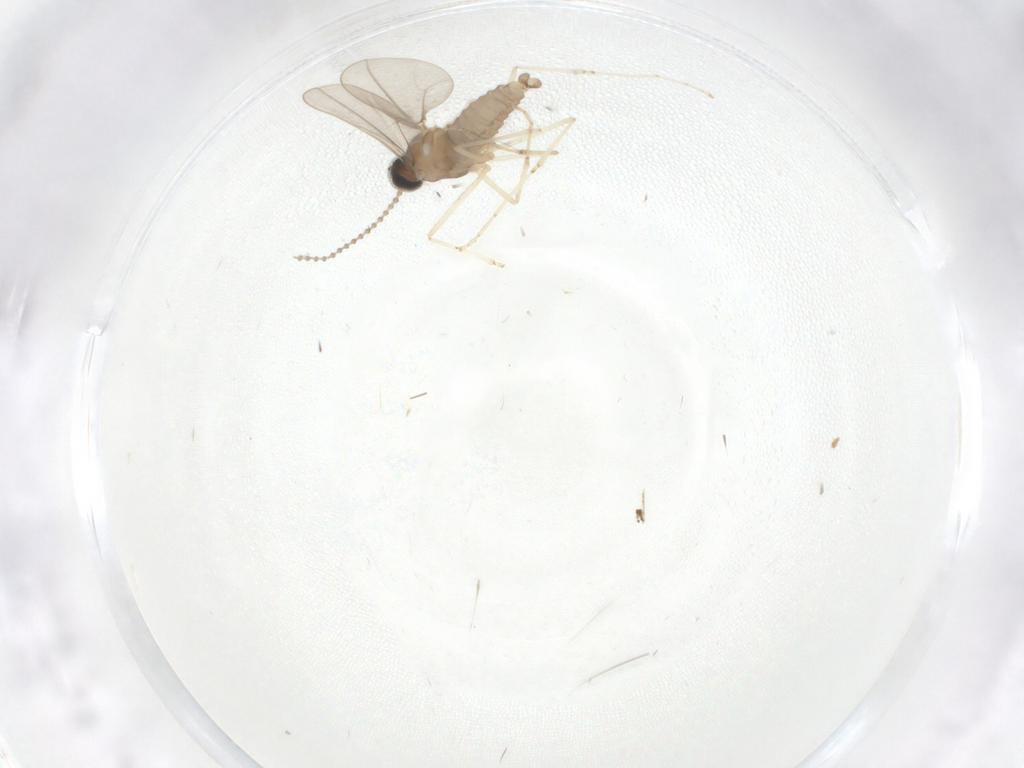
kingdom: Animalia
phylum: Arthropoda
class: Insecta
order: Diptera
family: Cecidomyiidae
